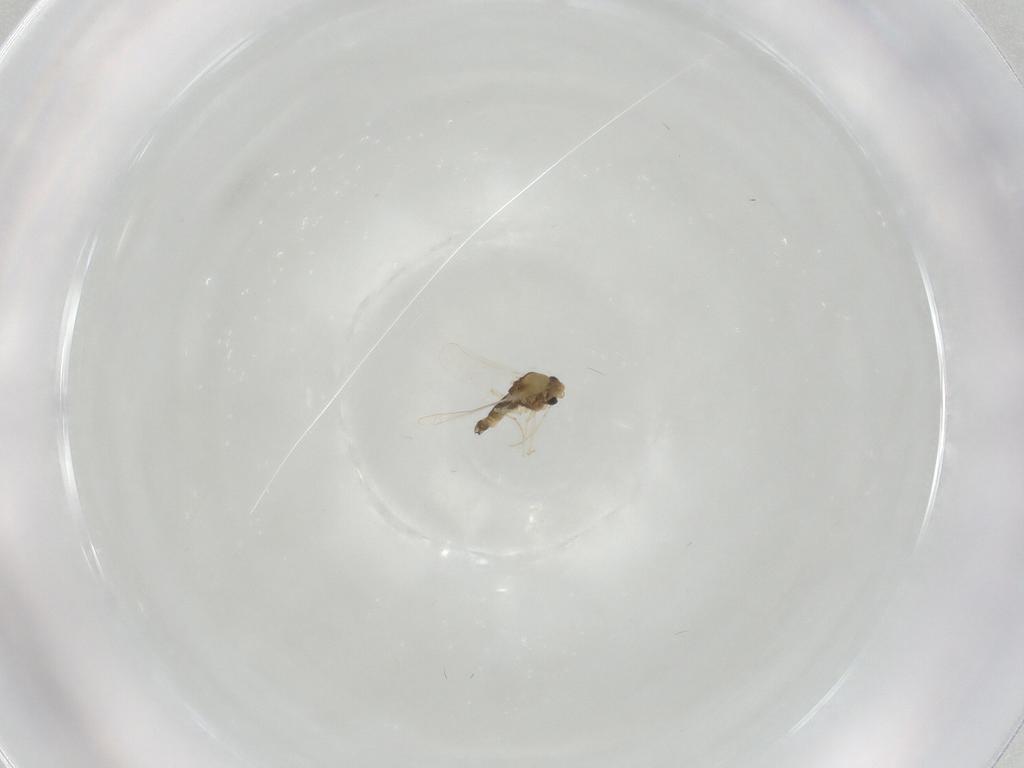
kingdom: Animalia
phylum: Arthropoda
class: Insecta
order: Diptera
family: Chironomidae
